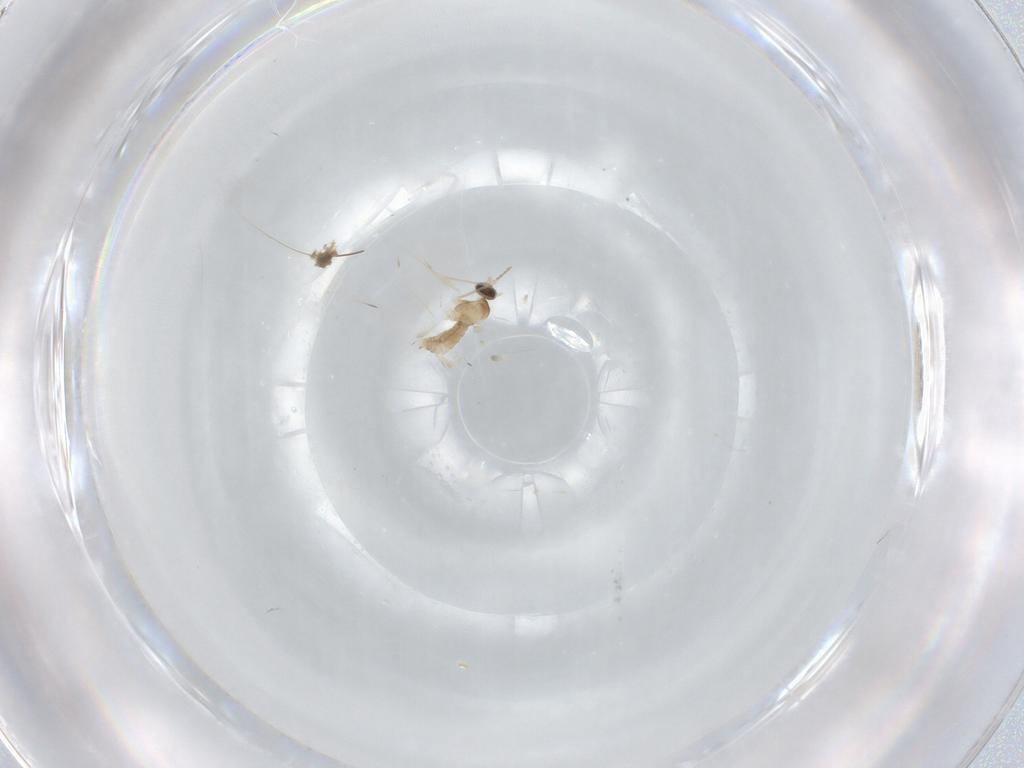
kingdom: Animalia
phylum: Arthropoda
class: Insecta
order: Diptera
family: Cecidomyiidae
